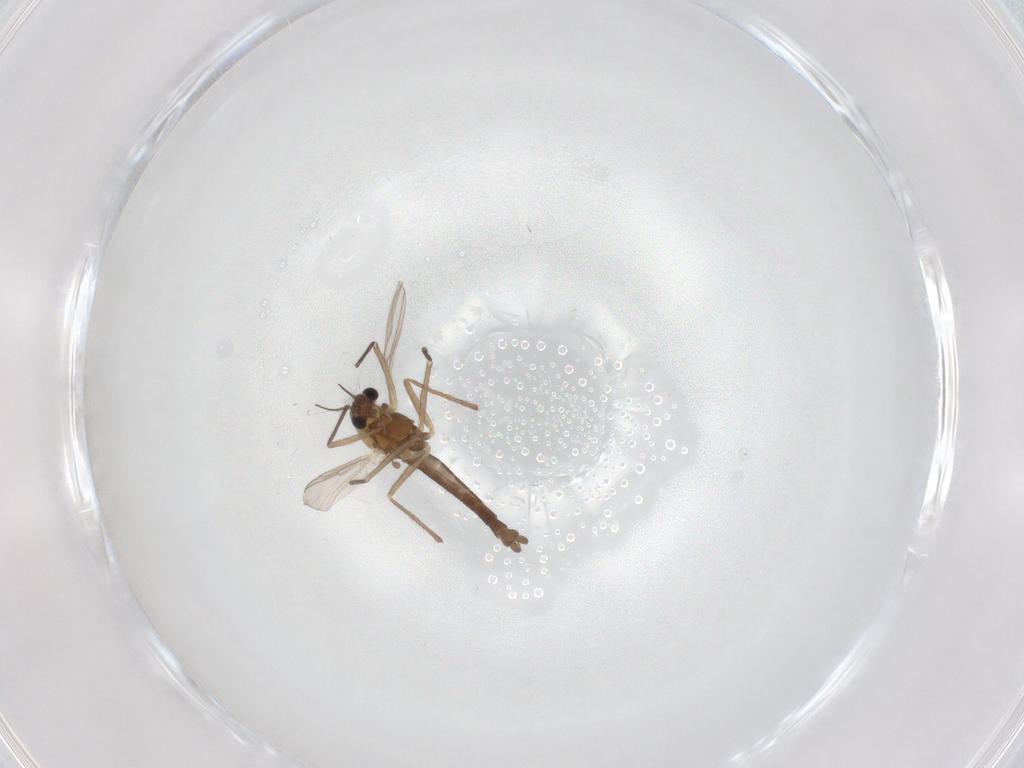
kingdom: Animalia
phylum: Arthropoda
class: Insecta
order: Diptera
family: Chironomidae
